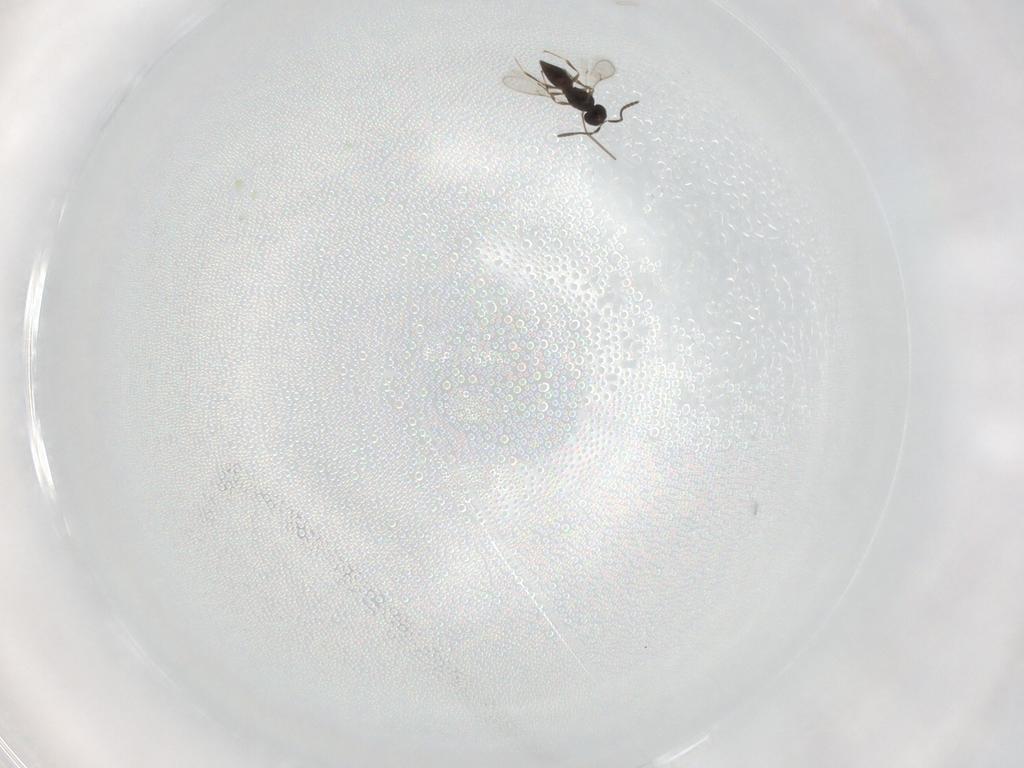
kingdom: Animalia
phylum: Arthropoda
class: Insecta
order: Hymenoptera
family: Scelionidae
